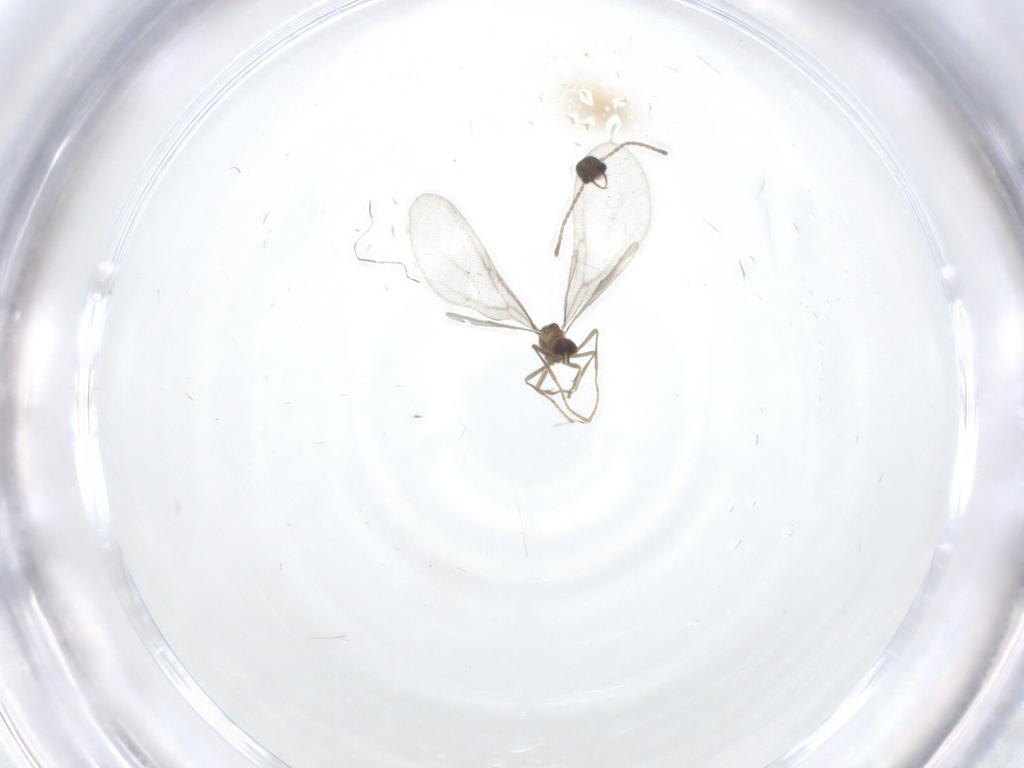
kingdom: Animalia
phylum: Arthropoda
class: Insecta
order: Hymenoptera
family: Formicidae
